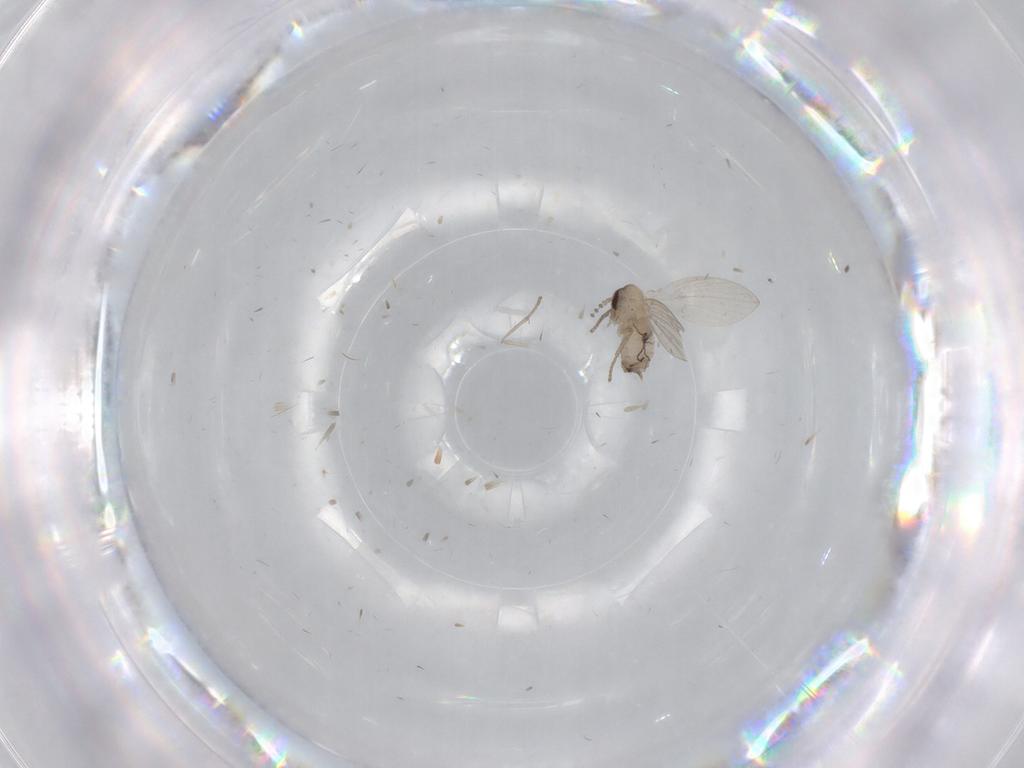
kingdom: Animalia
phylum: Arthropoda
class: Insecta
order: Diptera
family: Psychodidae
